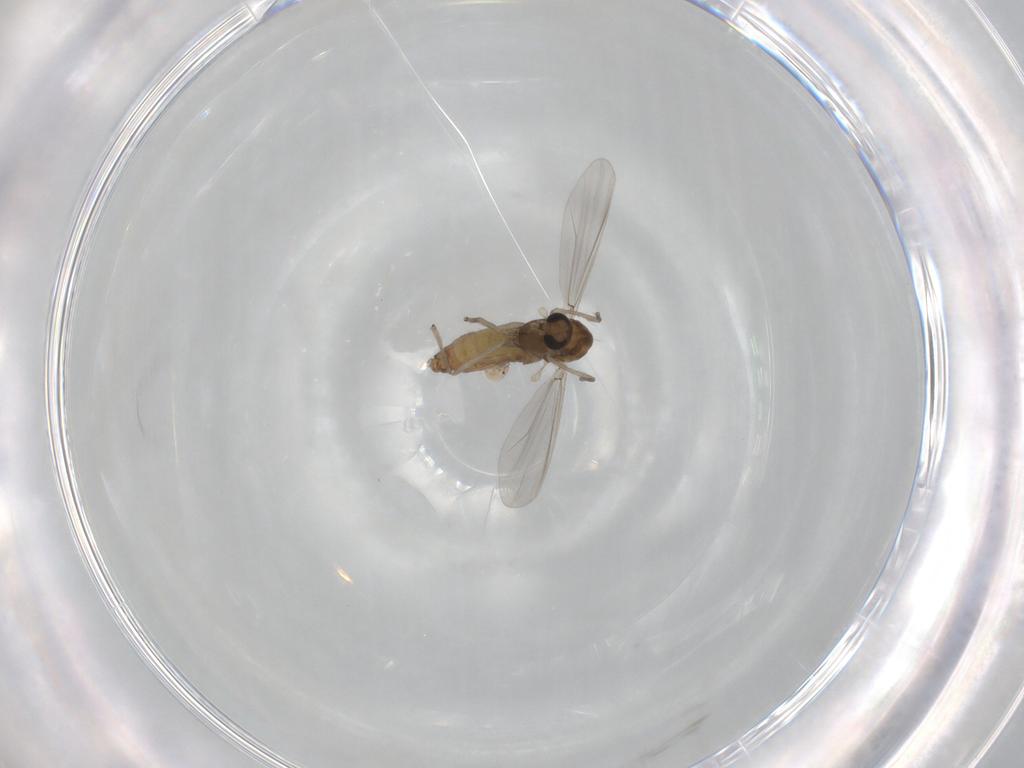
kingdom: Animalia
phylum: Arthropoda
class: Insecta
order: Diptera
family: Chironomidae
